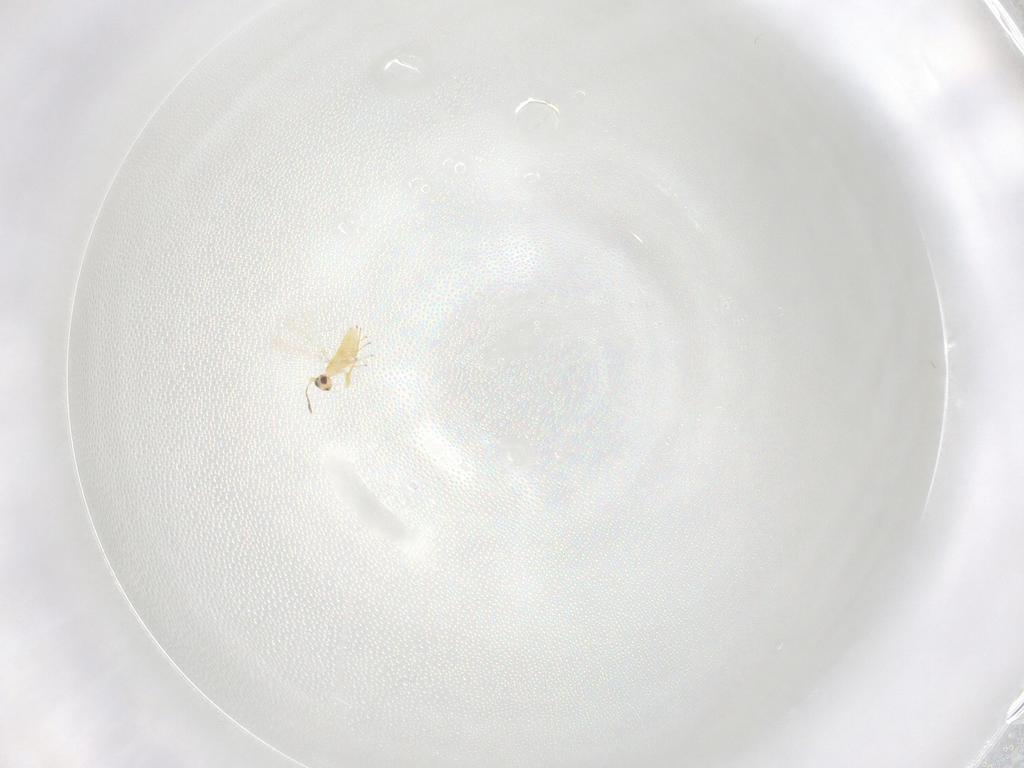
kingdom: Animalia
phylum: Arthropoda
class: Insecta
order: Hymenoptera
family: Mymaridae
